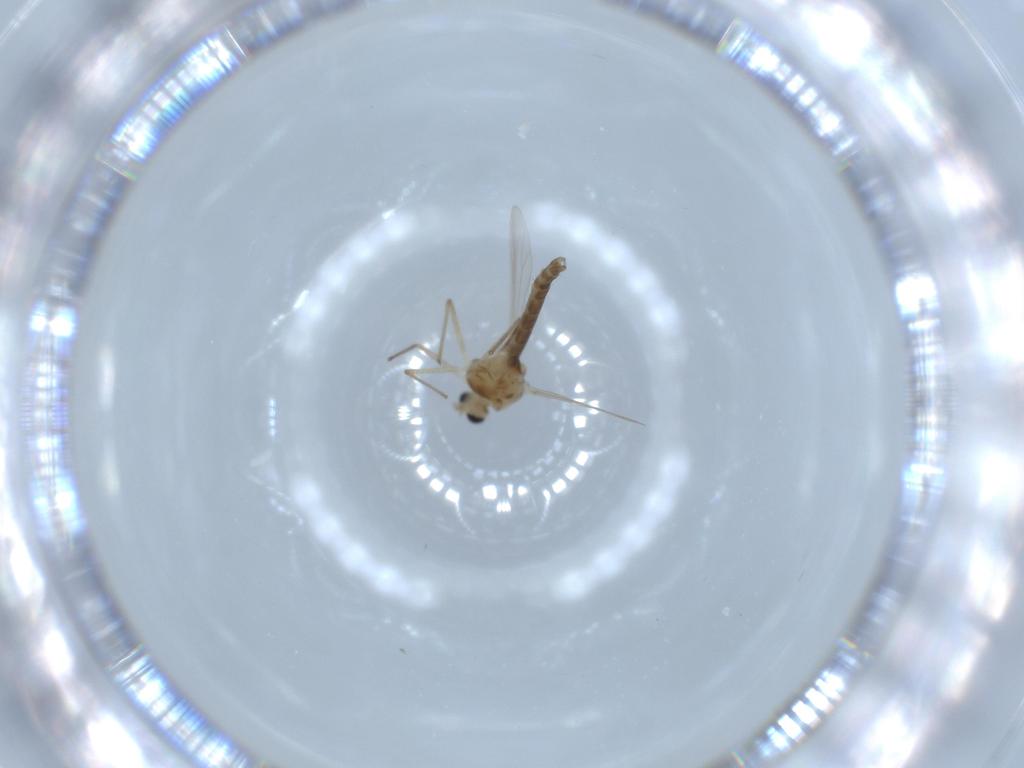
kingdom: Animalia
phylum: Arthropoda
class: Insecta
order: Diptera
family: Chironomidae
